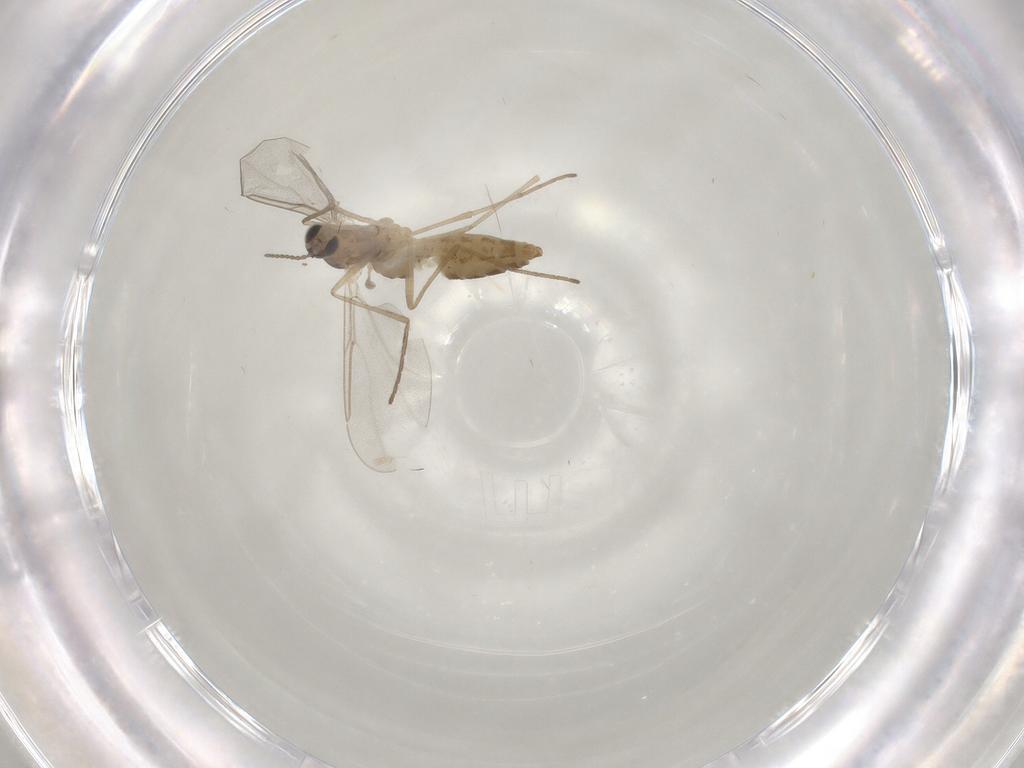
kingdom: Animalia
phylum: Arthropoda
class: Insecta
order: Diptera
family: Cecidomyiidae
